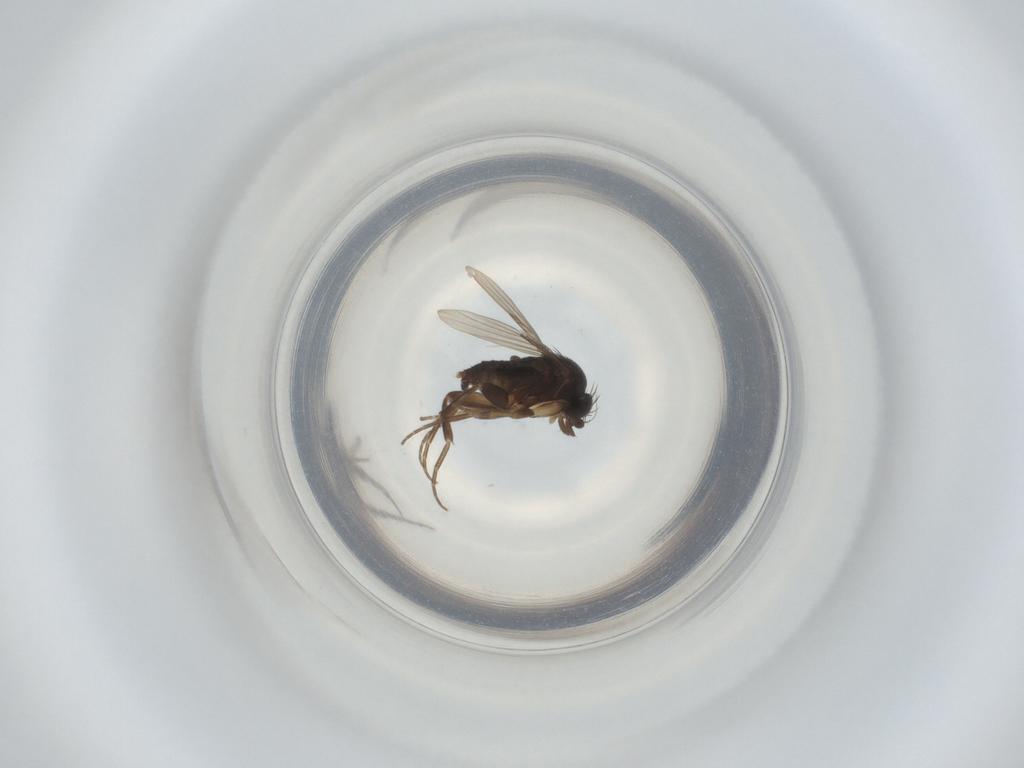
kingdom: Animalia
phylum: Arthropoda
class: Insecta
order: Diptera
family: Phoridae
